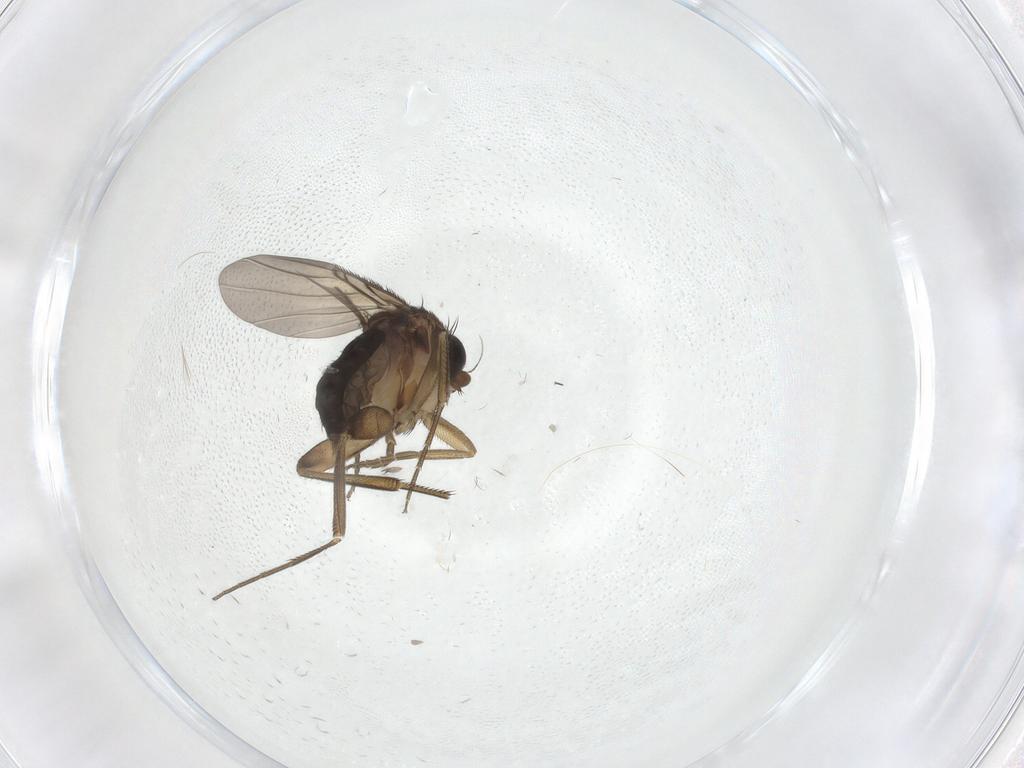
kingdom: Animalia
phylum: Arthropoda
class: Insecta
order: Diptera
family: Phoridae
